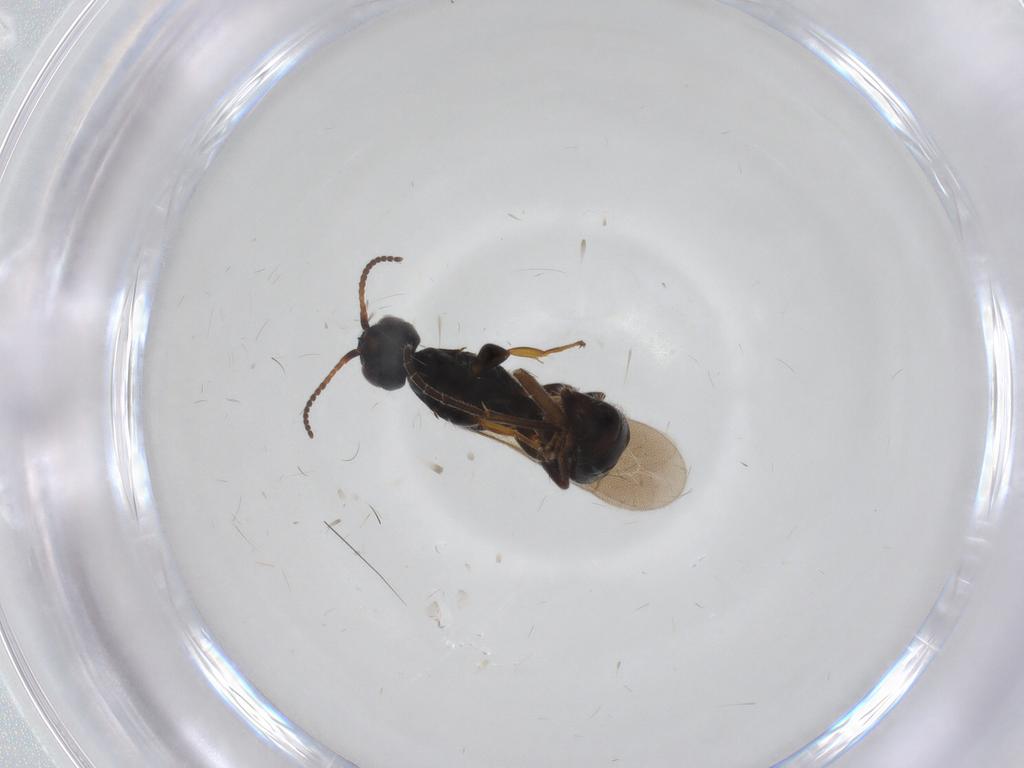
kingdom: Animalia
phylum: Arthropoda
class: Insecta
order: Hymenoptera
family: Bethylidae
